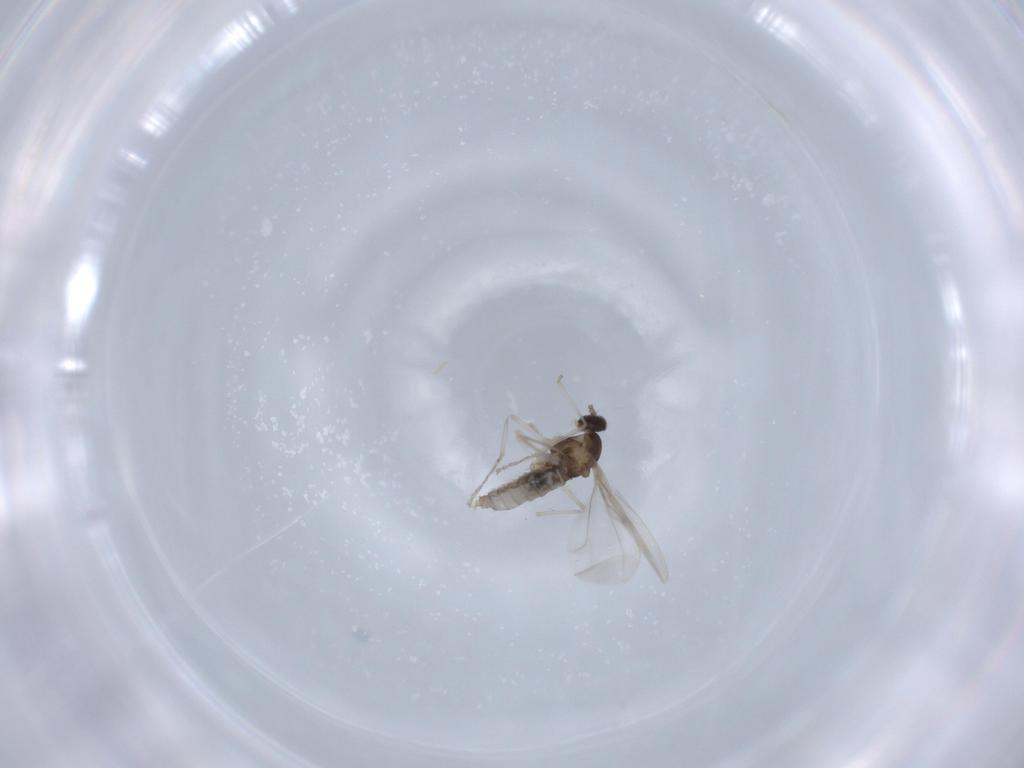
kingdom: Animalia
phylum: Arthropoda
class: Insecta
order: Diptera
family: Cecidomyiidae
